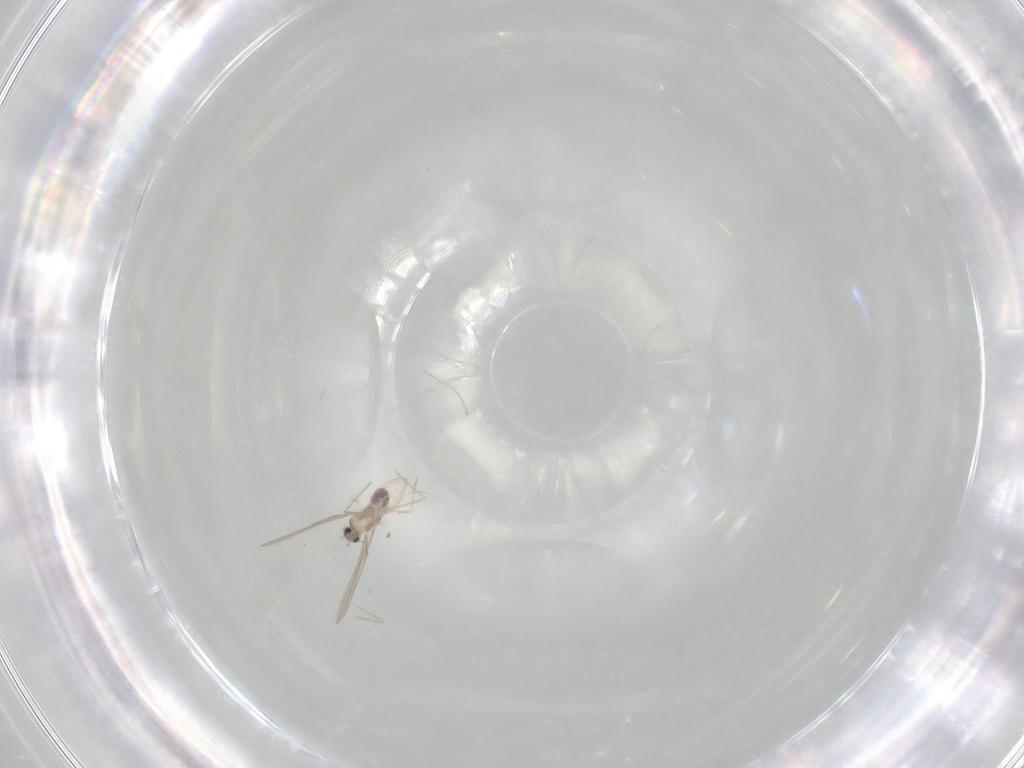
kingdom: Animalia
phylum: Arthropoda
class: Insecta
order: Diptera
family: Cecidomyiidae
